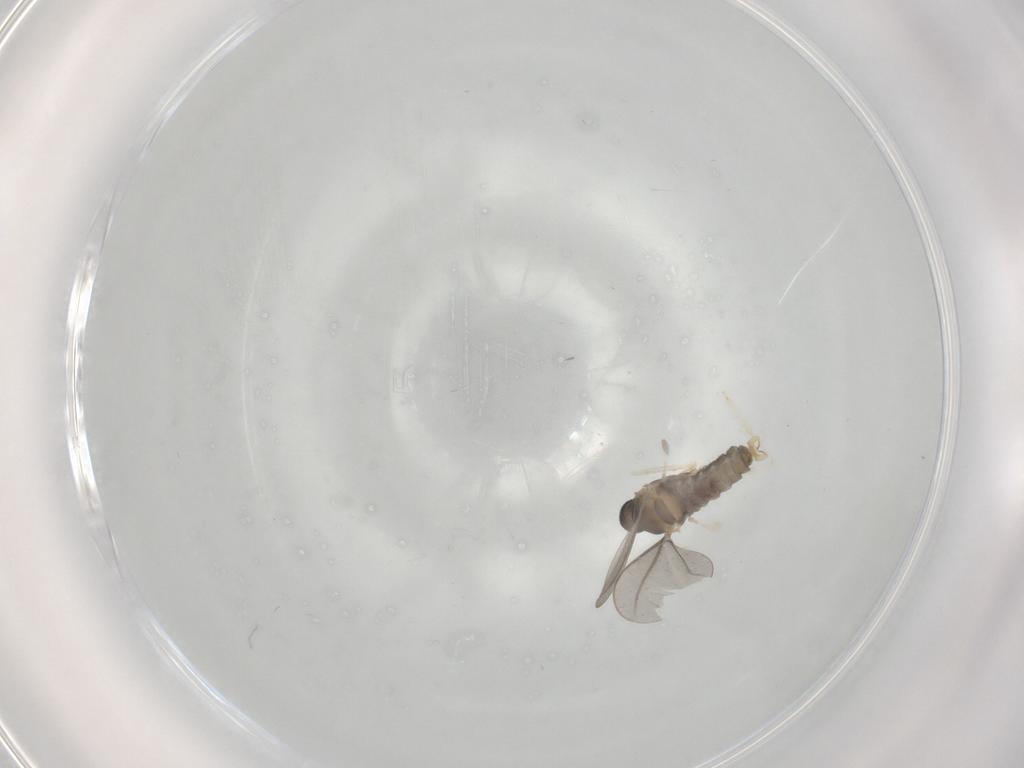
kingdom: Animalia
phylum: Arthropoda
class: Insecta
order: Diptera
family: Cecidomyiidae
